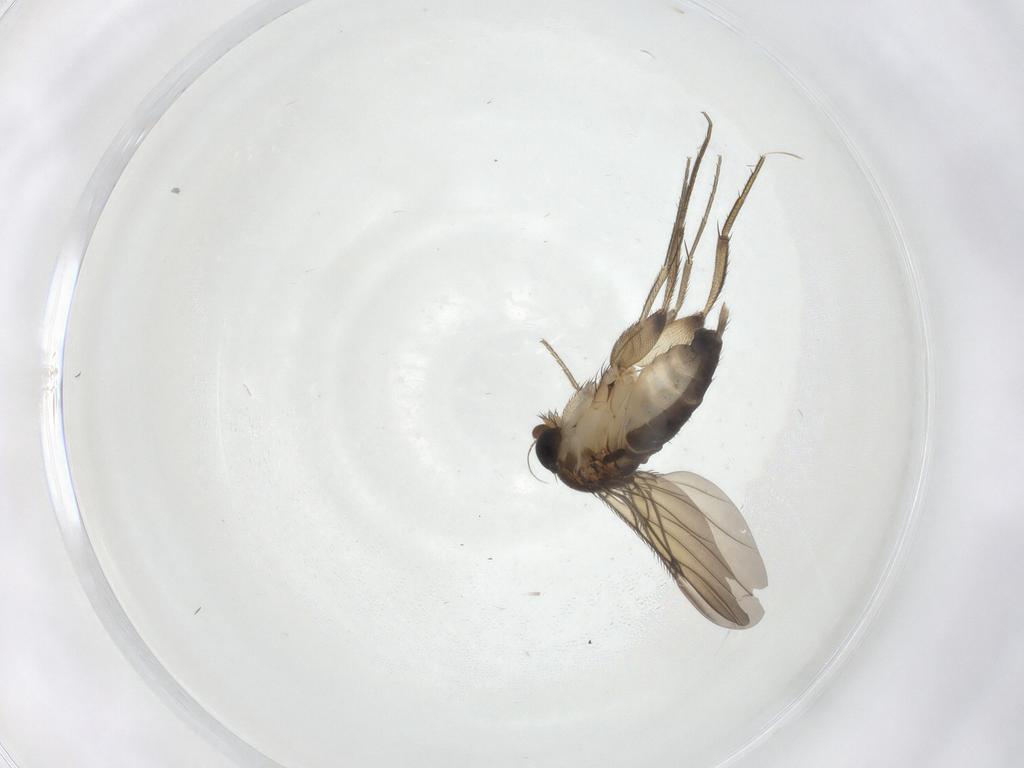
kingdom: Animalia
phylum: Arthropoda
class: Insecta
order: Diptera
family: Phoridae
